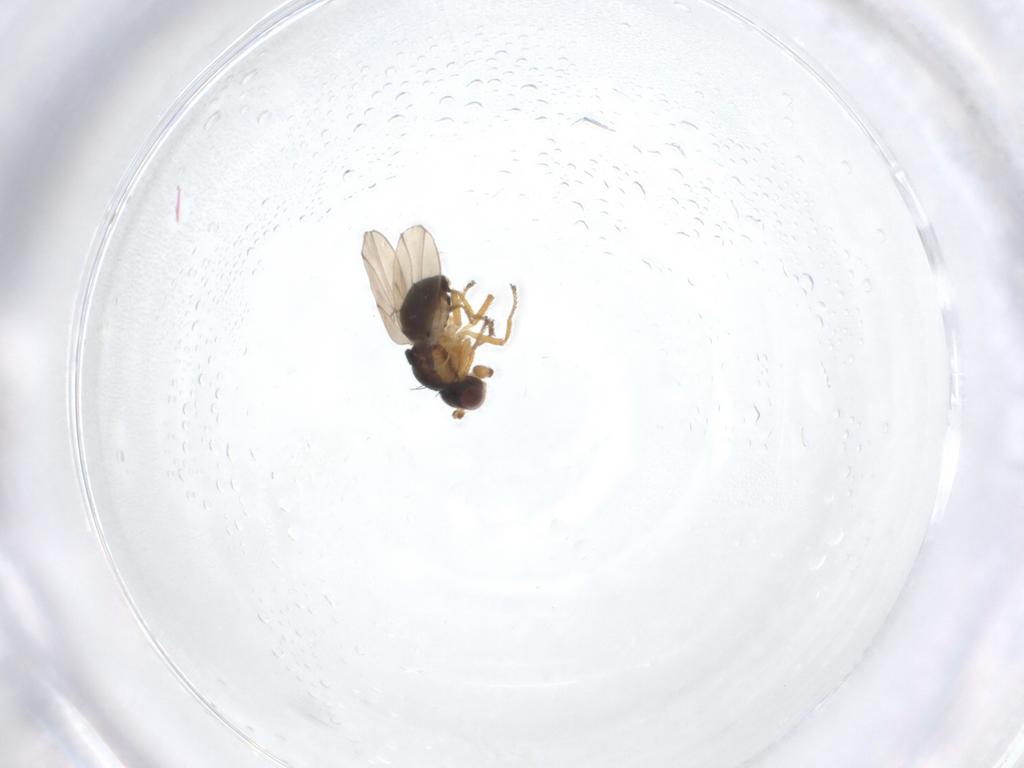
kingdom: Animalia
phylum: Arthropoda
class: Insecta
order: Diptera
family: Ephydridae
